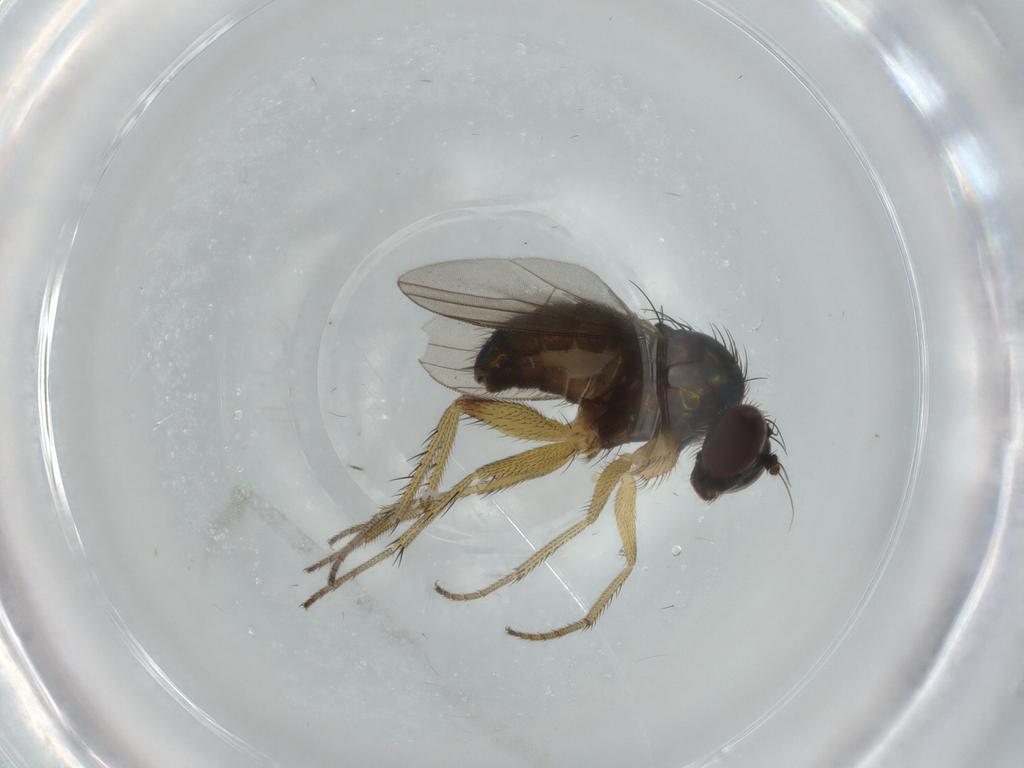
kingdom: Animalia
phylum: Arthropoda
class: Insecta
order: Diptera
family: Dolichopodidae
